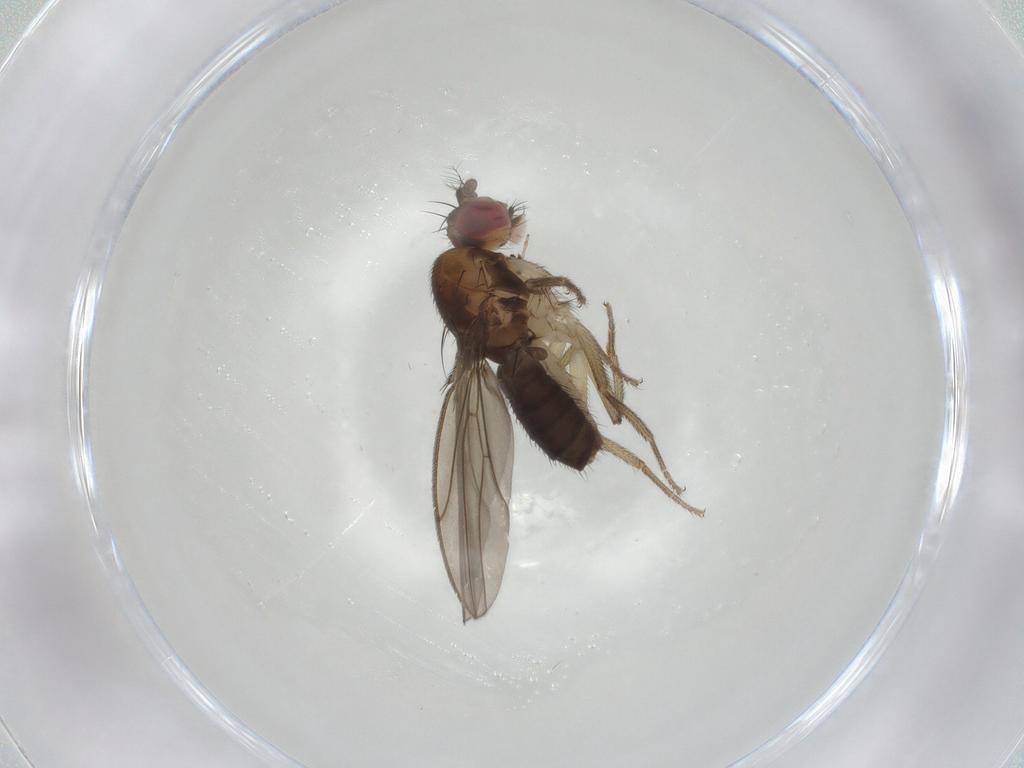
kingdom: Animalia
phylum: Arthropoda
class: Insecta
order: Diptera
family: Drosophilidae
